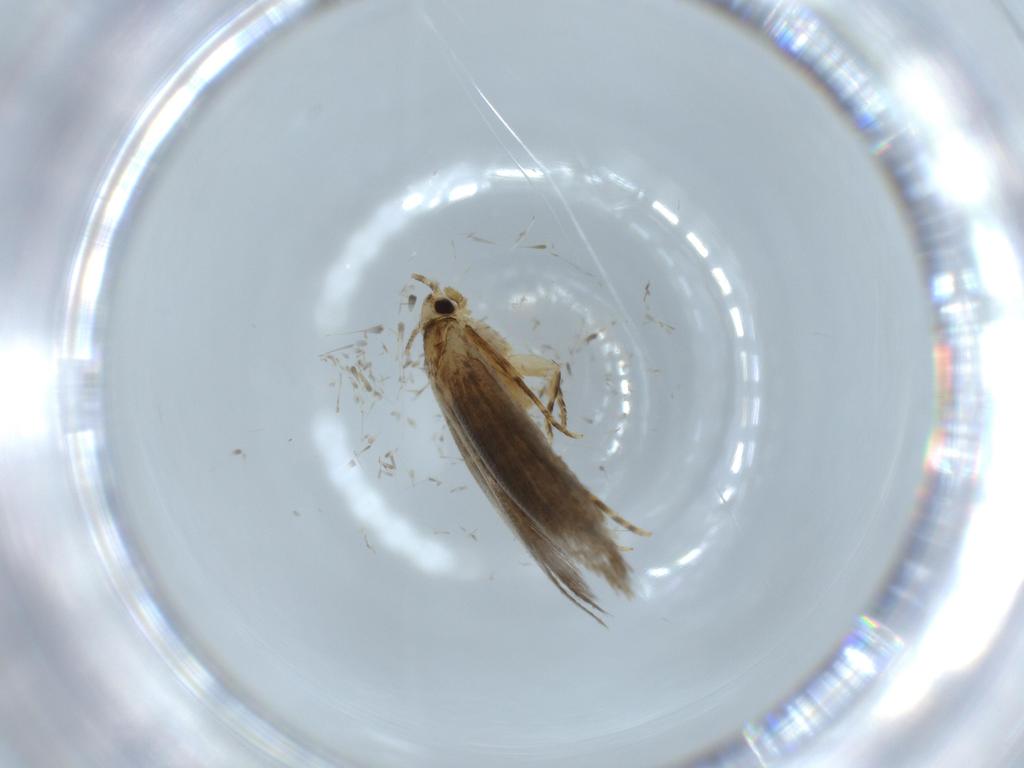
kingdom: Animalia
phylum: Arthropoda
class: Insecta
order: Lepidoptera
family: Tineidae
